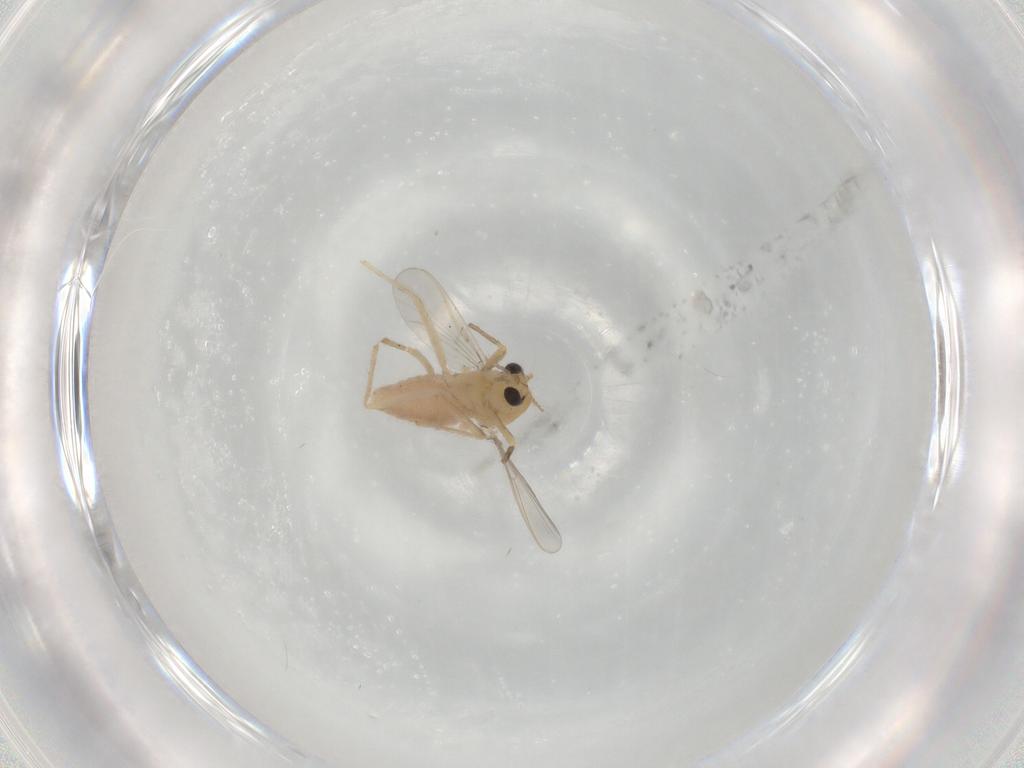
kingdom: Animalia
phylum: Arthropoda
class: Insecta
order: Diptera
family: Chironomidae
